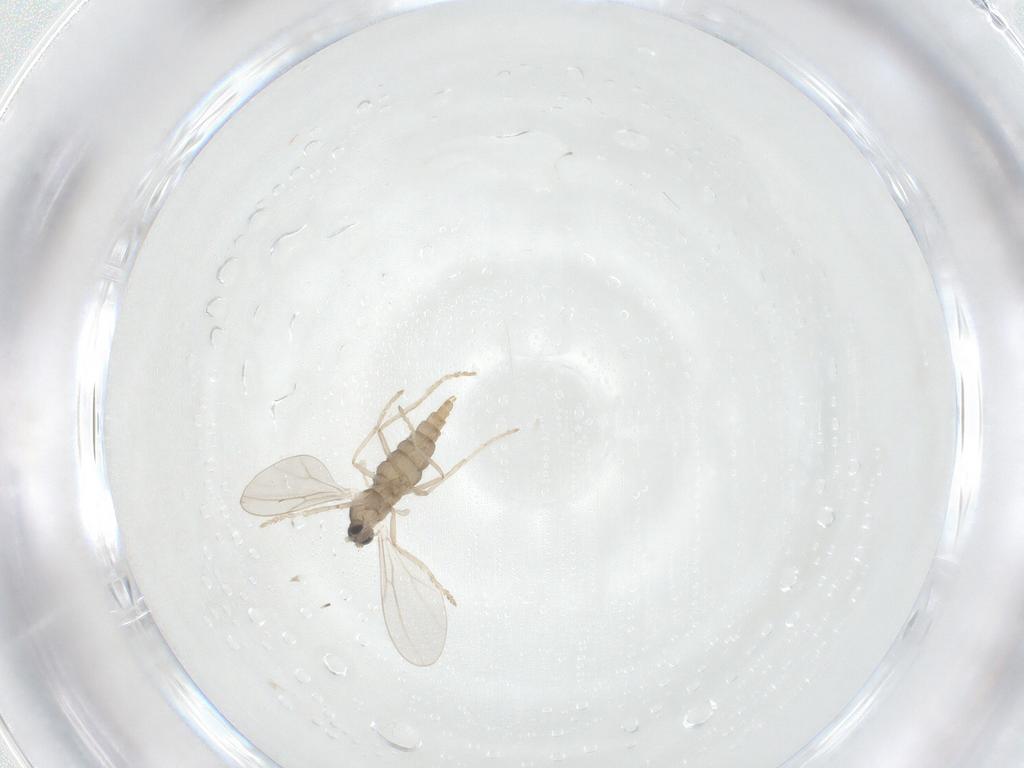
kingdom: Animalia
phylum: Arthropoda
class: Insecta
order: Diptera
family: Cecidomyiidae
